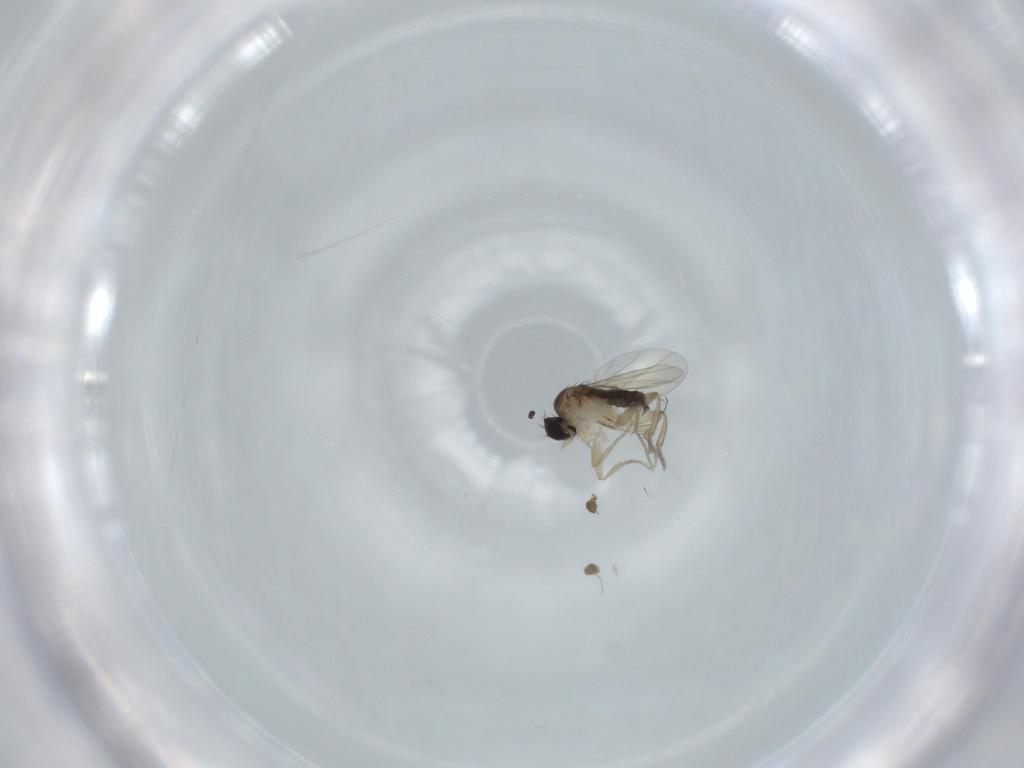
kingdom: Animalia
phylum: Arthropoda
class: Insecta
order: Diptera
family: Phoridae
